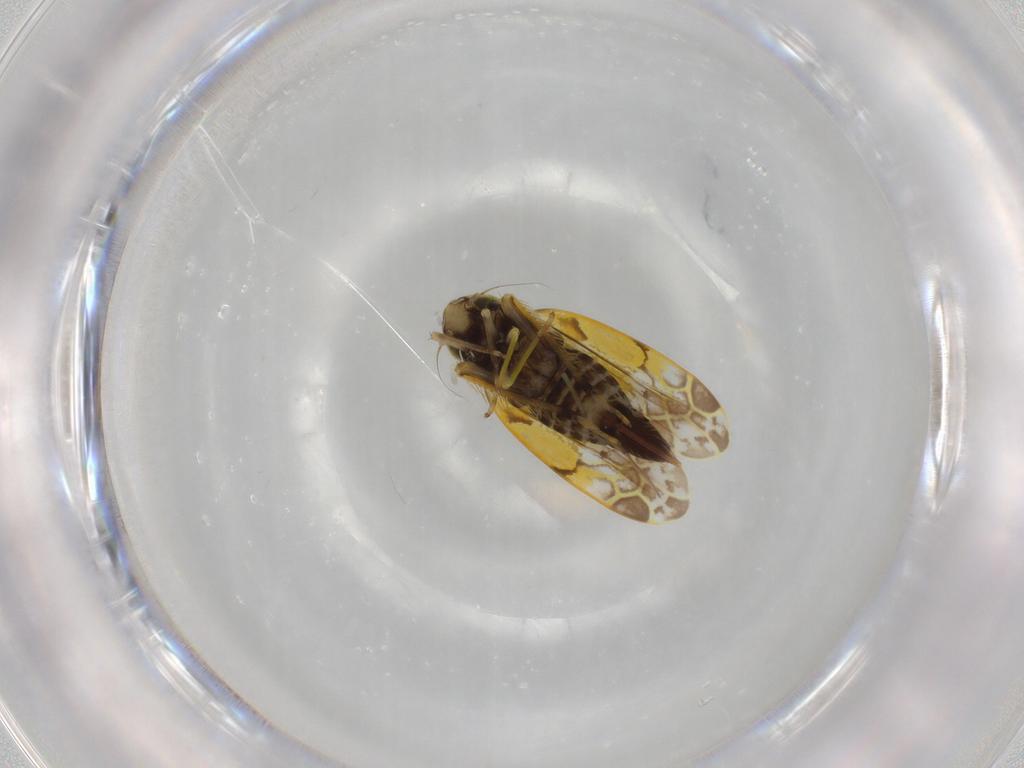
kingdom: Animalia
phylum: Arthropoda
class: Insecta
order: Hemiptera
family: Cicadellidae
